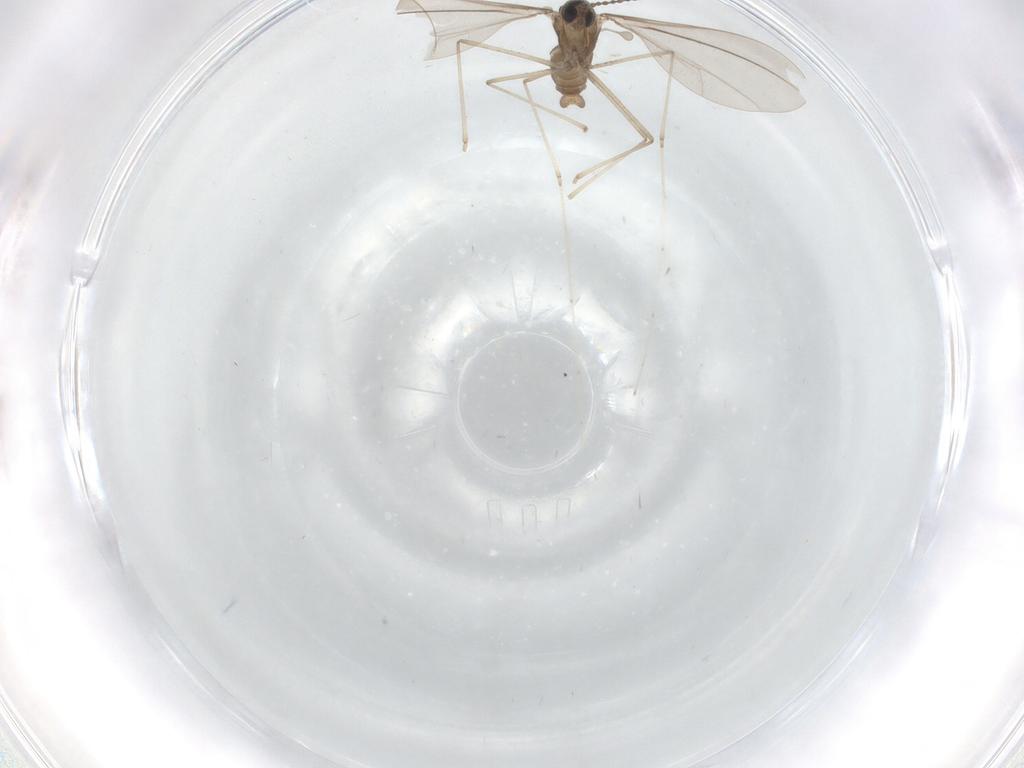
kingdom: Animalia
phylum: Arthropoda
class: Insecta
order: Diptera
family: Cecidomyiidae
